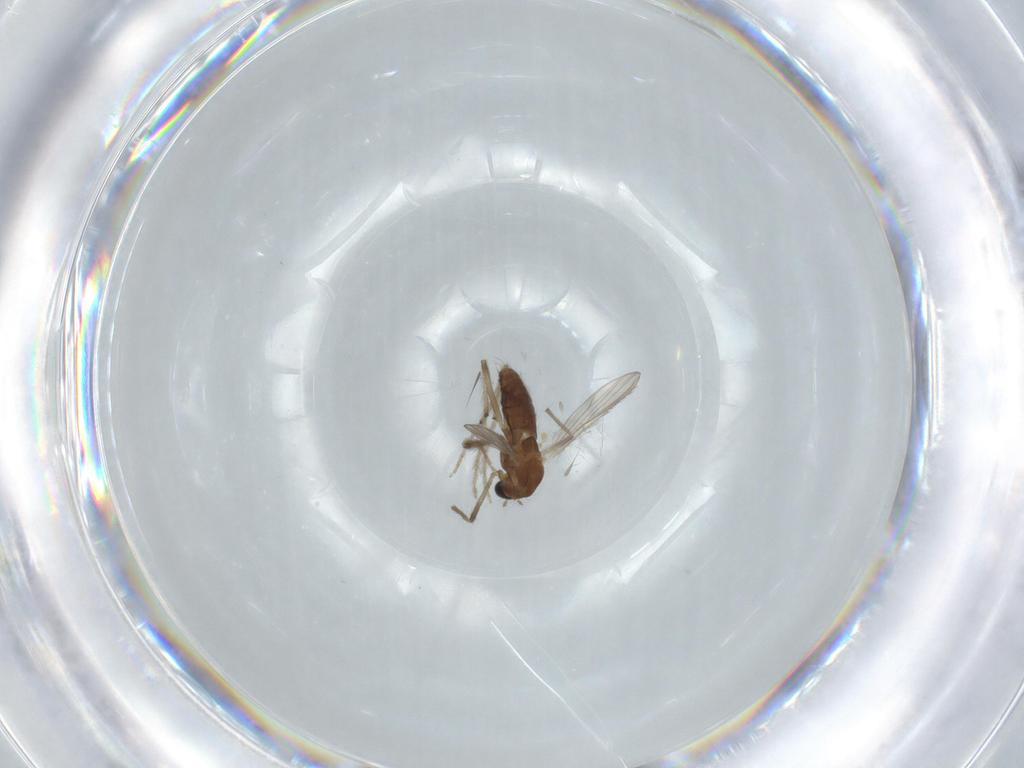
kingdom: Animalia
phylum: Arthropoda
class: Insecta
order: Diptera
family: Chironomidae
